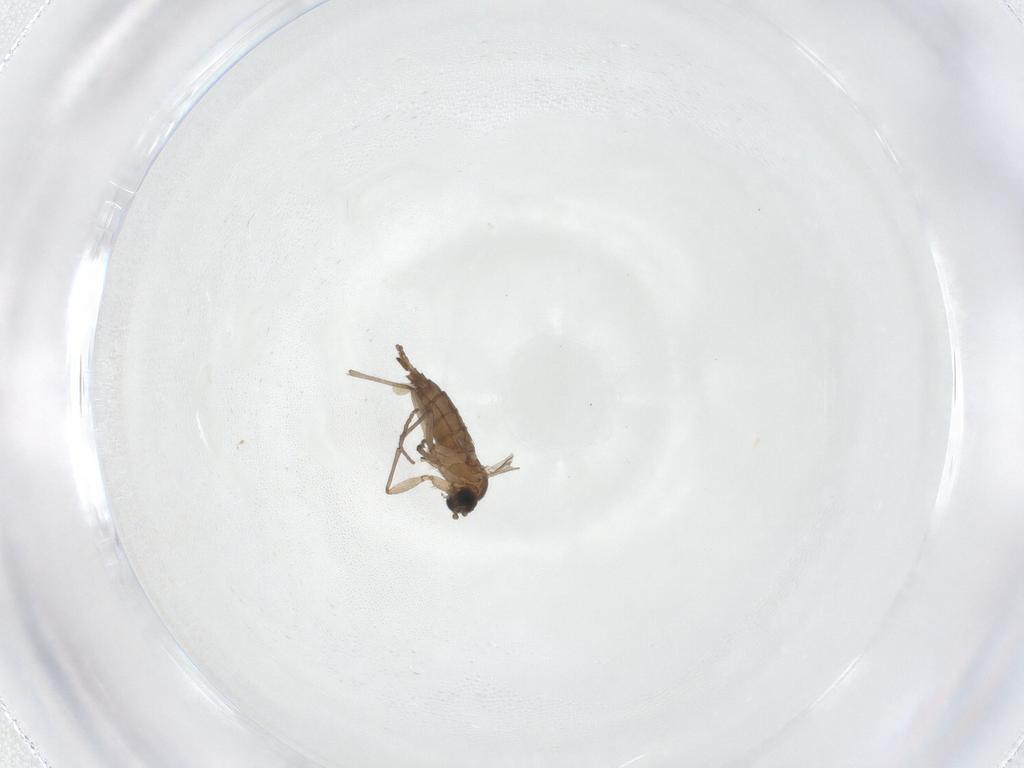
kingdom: Animalia
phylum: Arthropoda
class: Insecta
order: Diptera
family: Sciaridae
